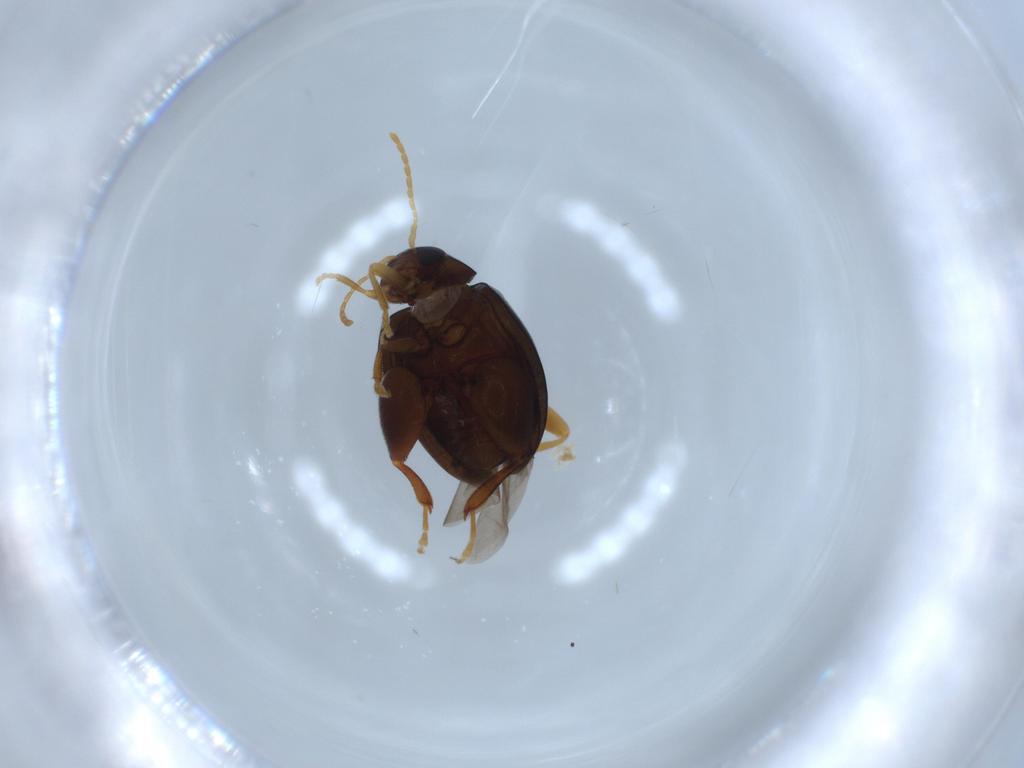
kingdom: Animalia
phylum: Arthropoda
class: Insecta
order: Coleoptera
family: Chrysomelidae
